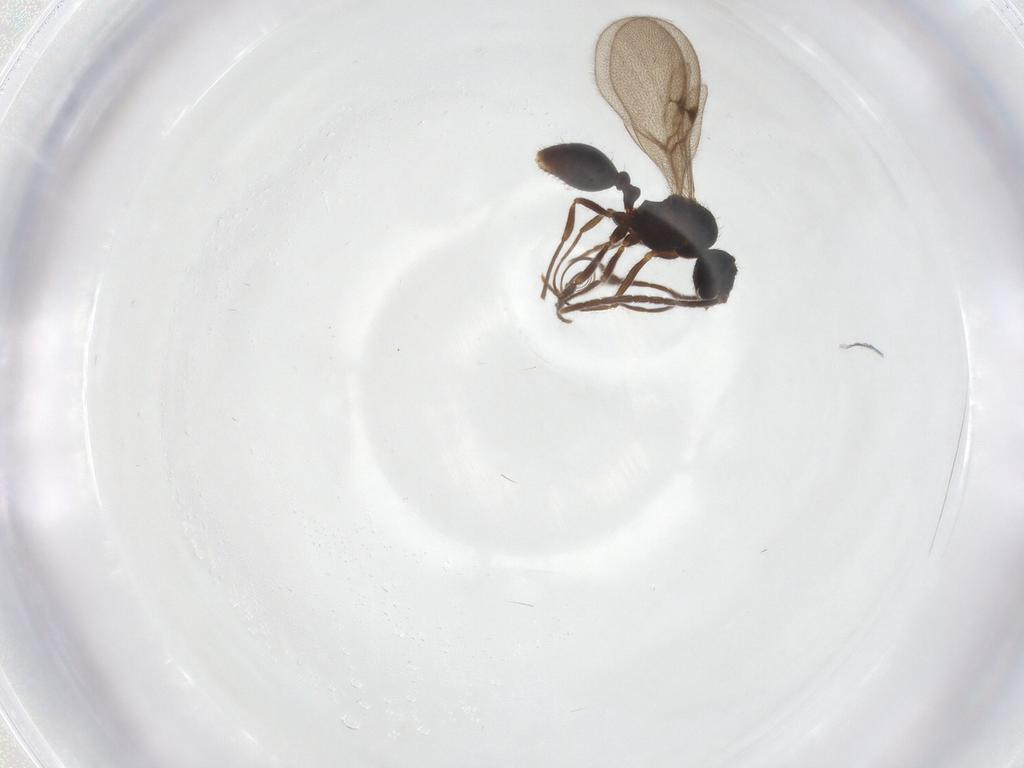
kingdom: Animalia
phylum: Arthropoda
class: Insecta
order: Hymenoptera
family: Formicidae
